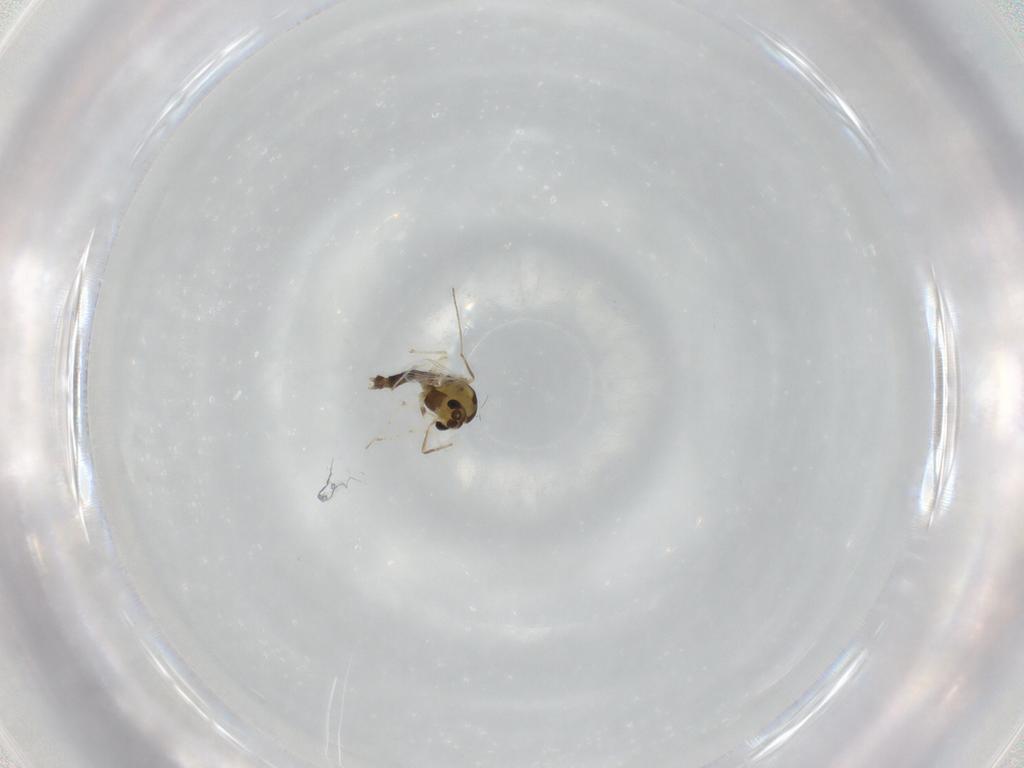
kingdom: Animalia
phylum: Arthropoda
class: Insecta
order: Diptera
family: Chironomidae
